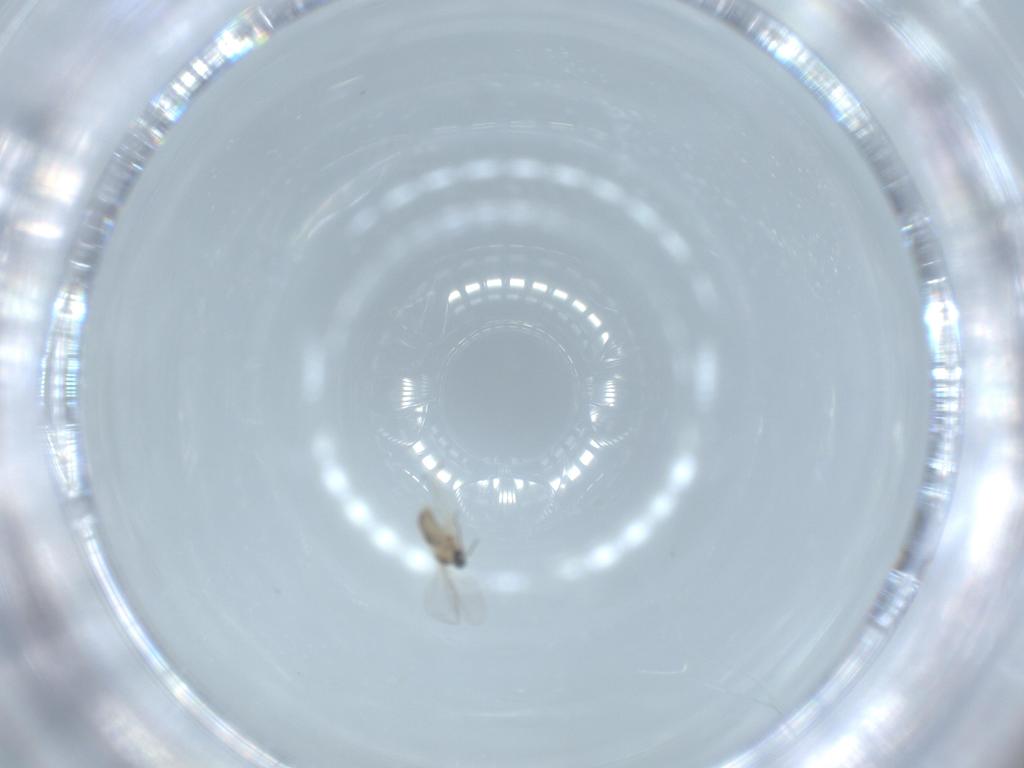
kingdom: Animalia
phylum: Arthropoda
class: Insecta
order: Diptera
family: Cecidomyiidae
